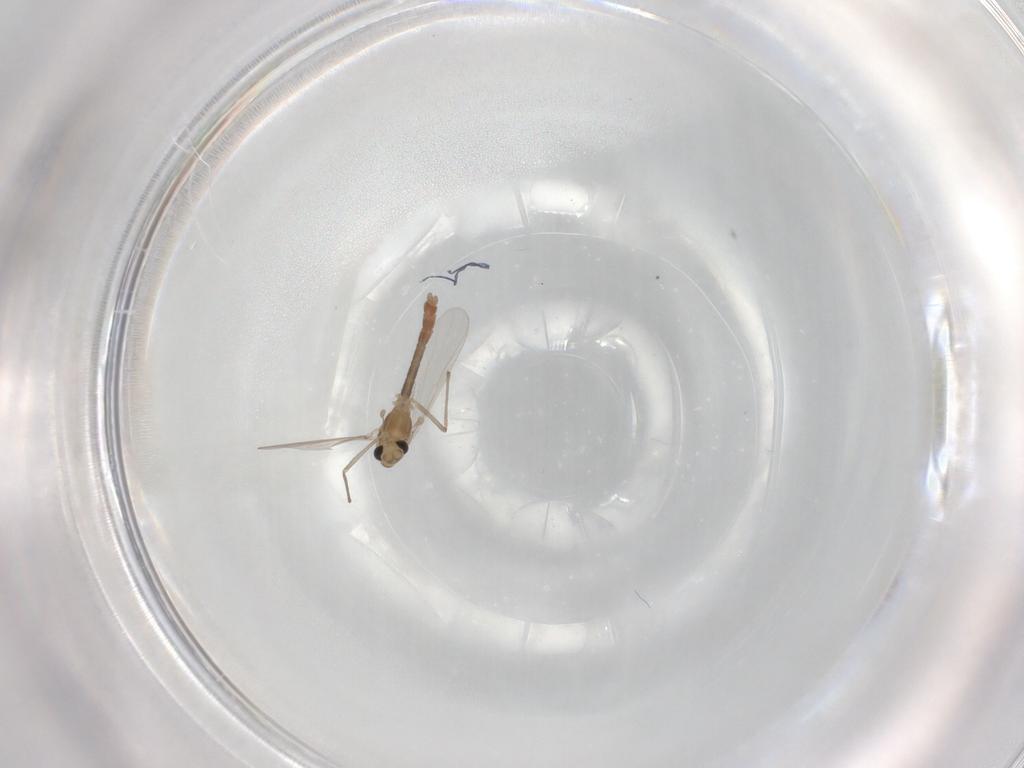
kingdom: Animalia
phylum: Arthropoda
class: Insecta
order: Diptera
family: Chironomidae
